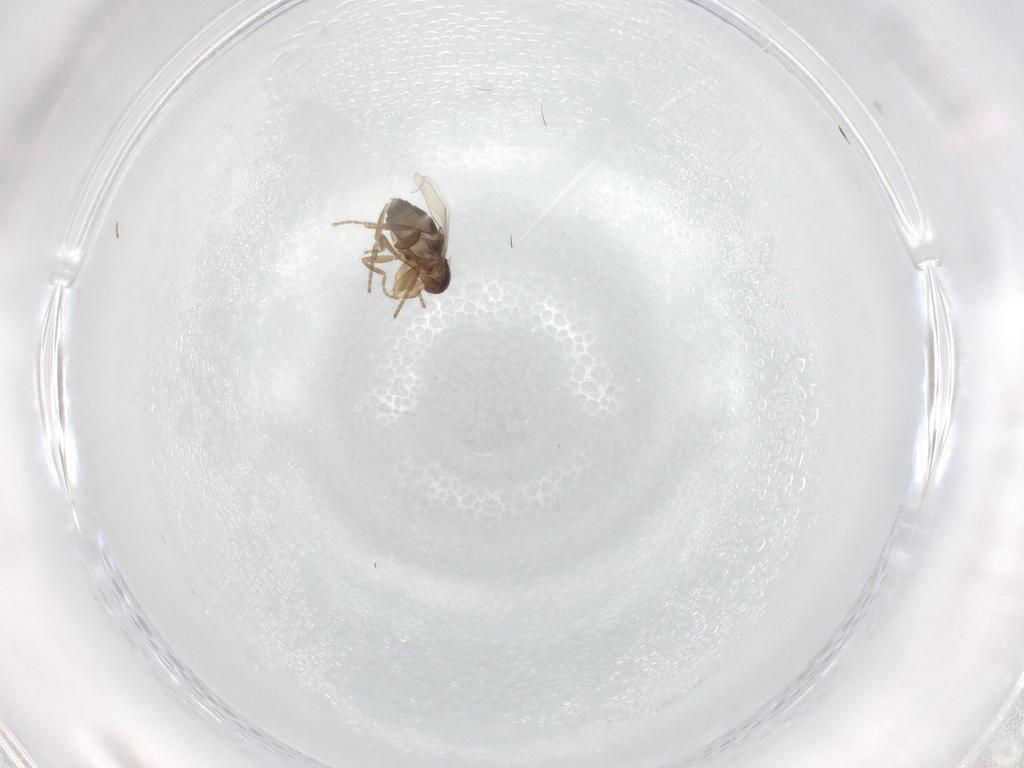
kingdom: Animalia
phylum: Arthropoda
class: Insecta
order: Diptera
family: Phoridae
